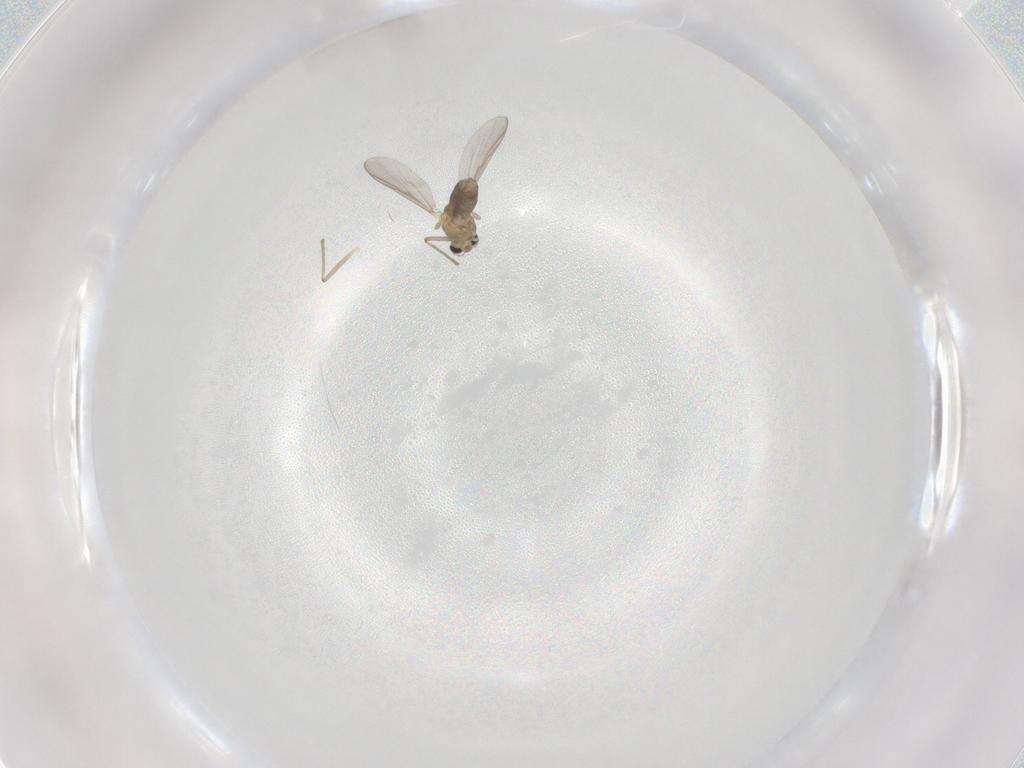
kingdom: Animalia
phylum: Arthropoda
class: Insecta
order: Diptera
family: Chironomidae
